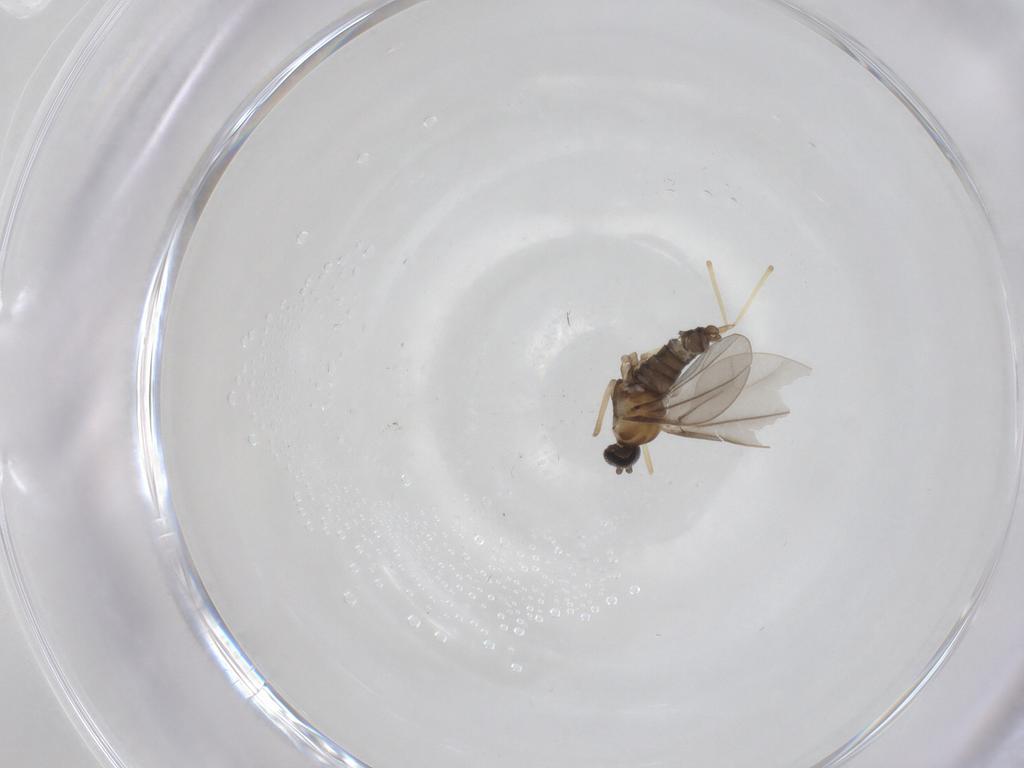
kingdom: Animalia
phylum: Arthropoda
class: Insecta
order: Diptera
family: Cecidomyiidae
